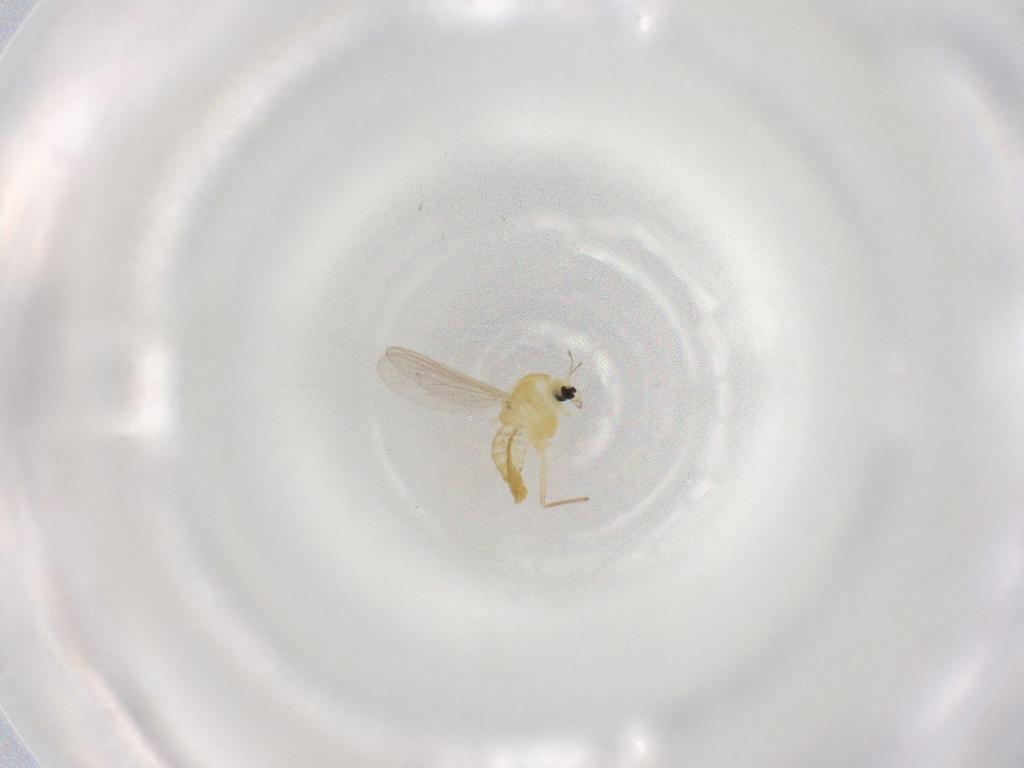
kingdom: Animalia
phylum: Arthropoda
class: Insecta
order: Diptera
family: Chironomidae
